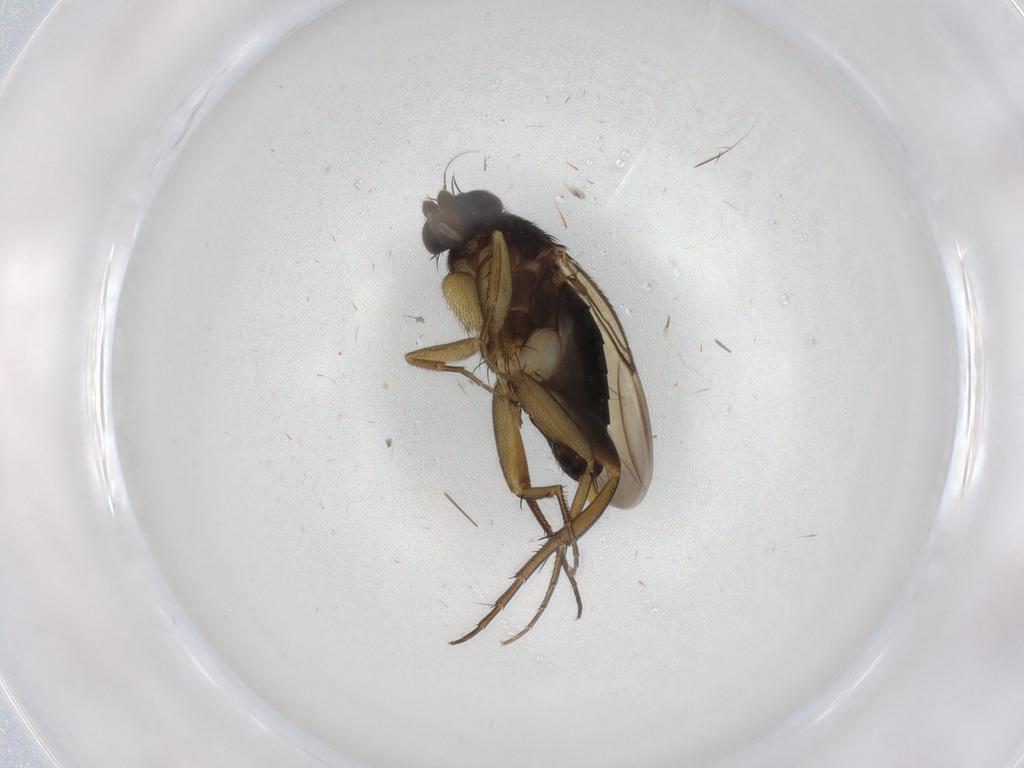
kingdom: Animalia
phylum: Arthropoda
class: Insecta
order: Diptera
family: Phoridae
